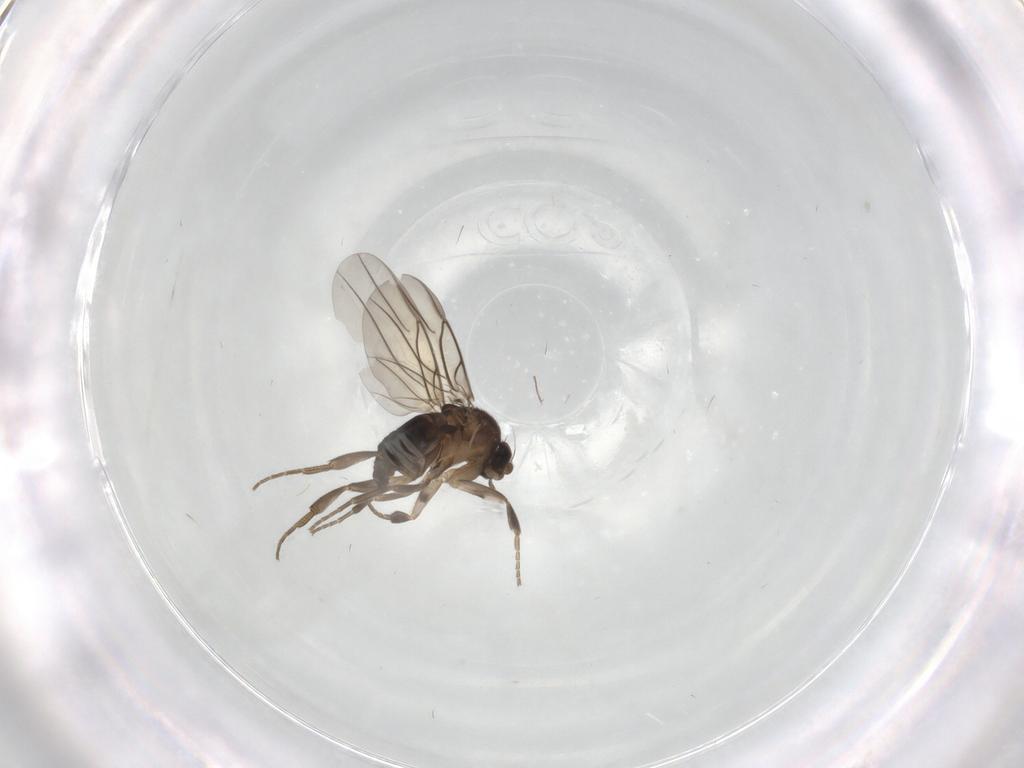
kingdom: Animalia
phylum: Arthropoda
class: Insecta
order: Diptera
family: Cecidomyiidae
